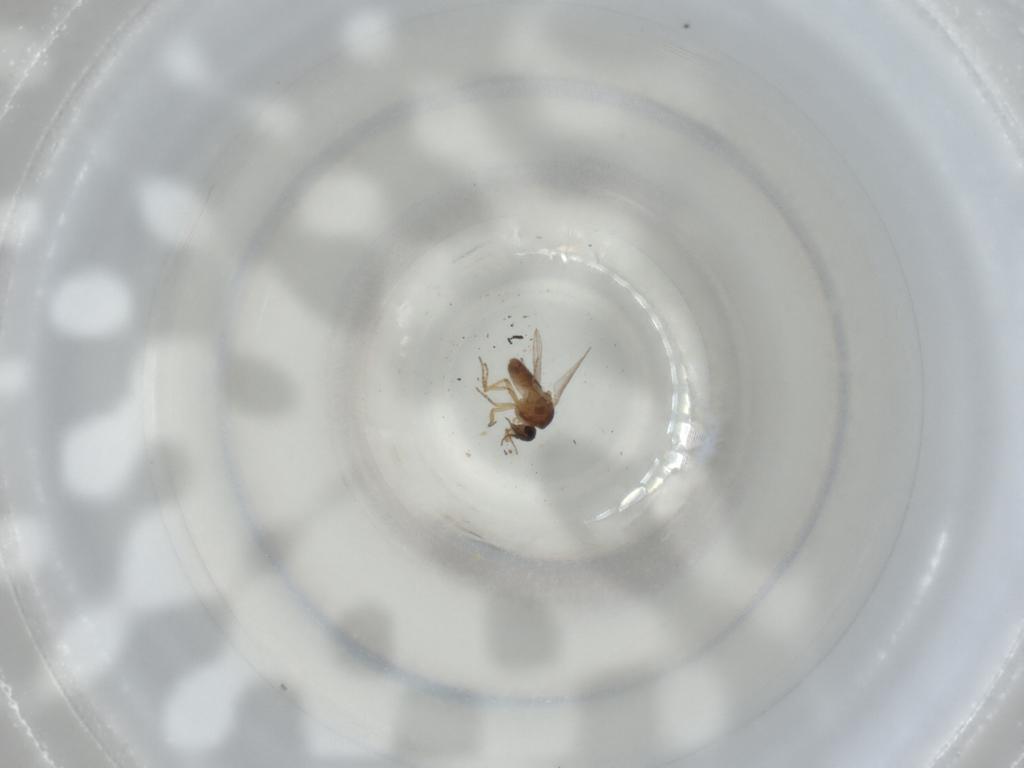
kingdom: Animalia
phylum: Arthropoda
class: Insecta
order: Diptera
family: Ceratopogonidae
